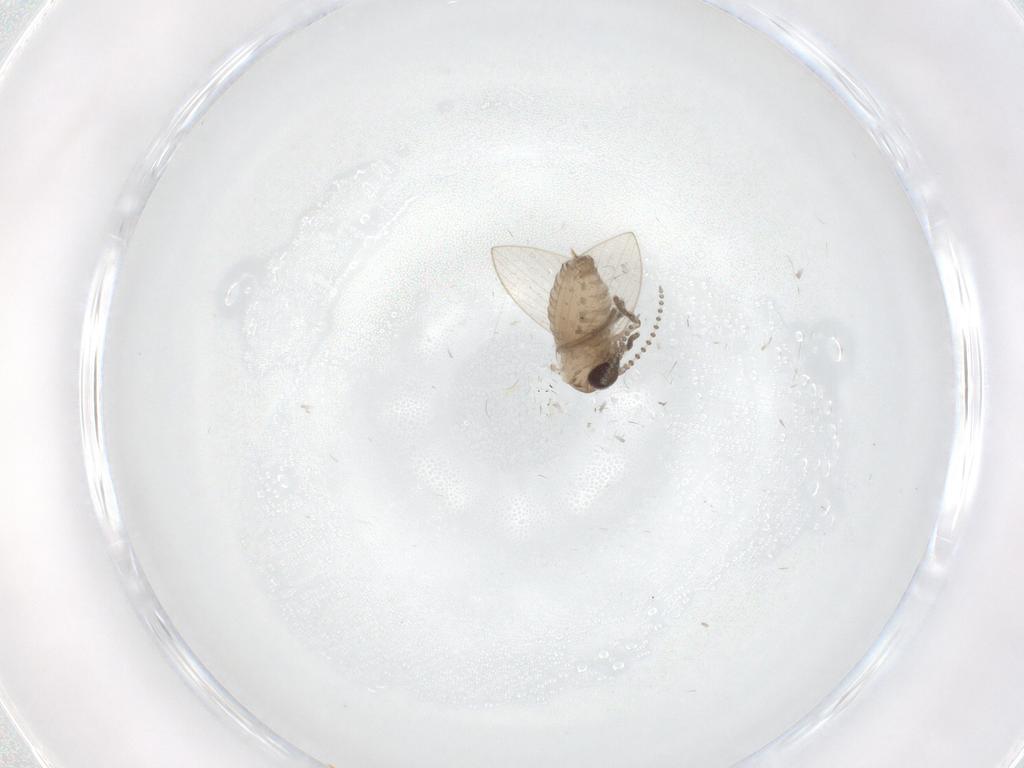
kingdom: Animalia
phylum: Arthropoda
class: Insecta
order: Diptera
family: Psychodidae
